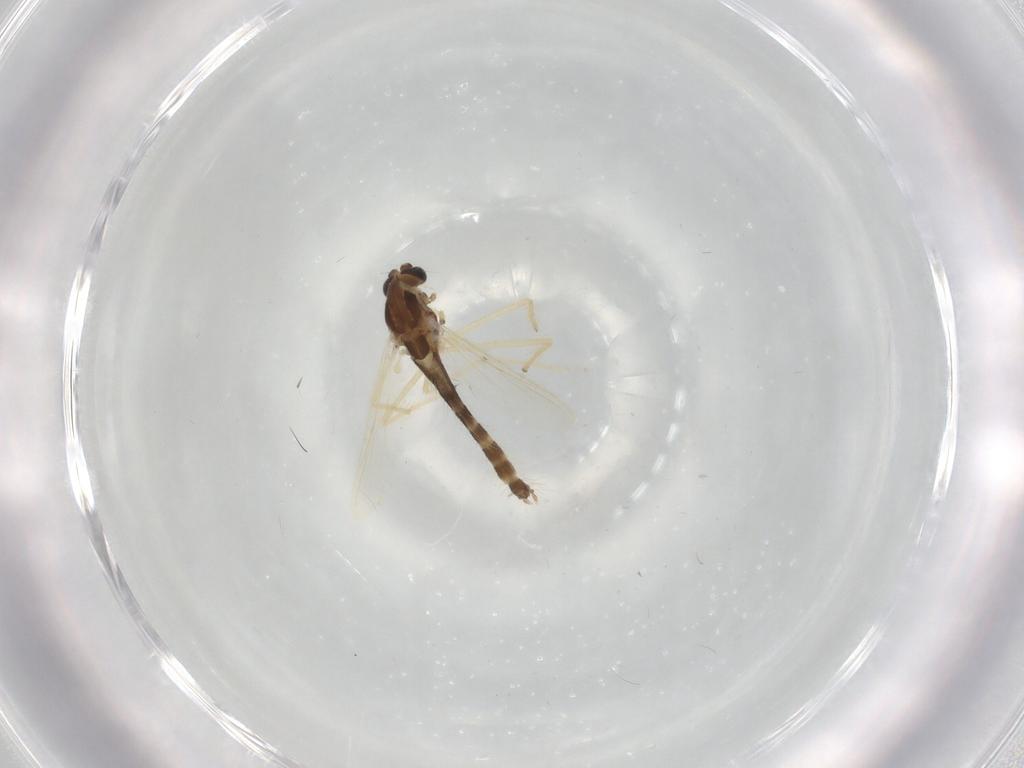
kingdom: Animalia
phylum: Arthropoda
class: Insecta
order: Diptera
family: Chironomidae
